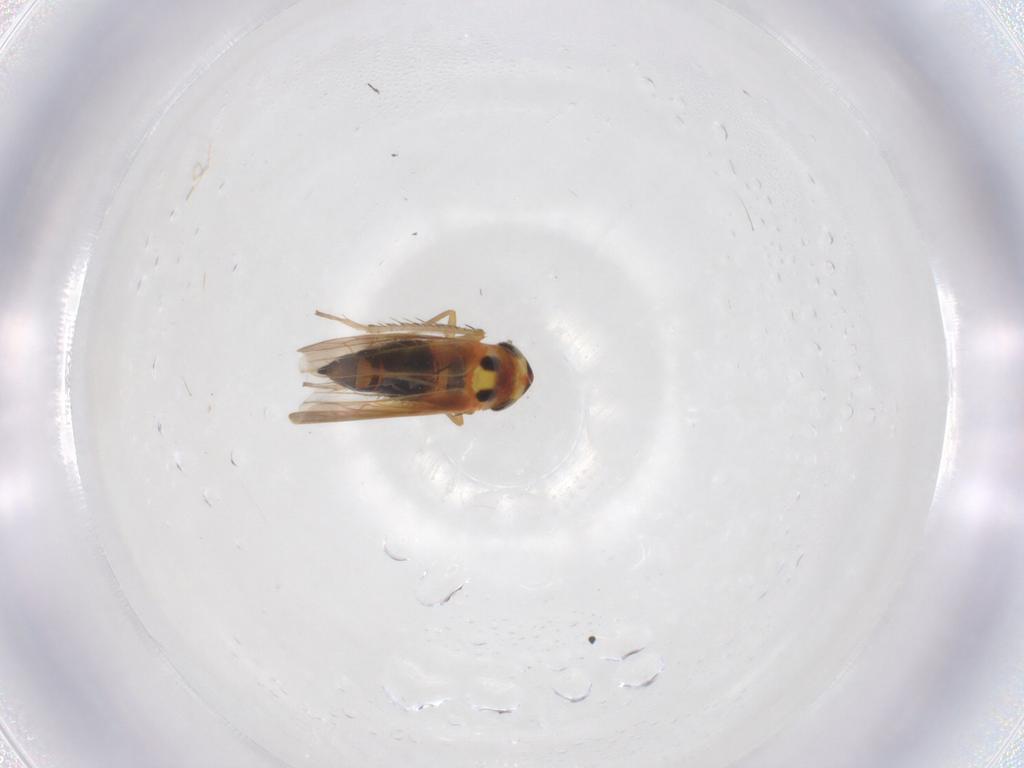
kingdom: Animalia
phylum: Arthropoda
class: Insecta
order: Hemiptera
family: Cicadellidae
